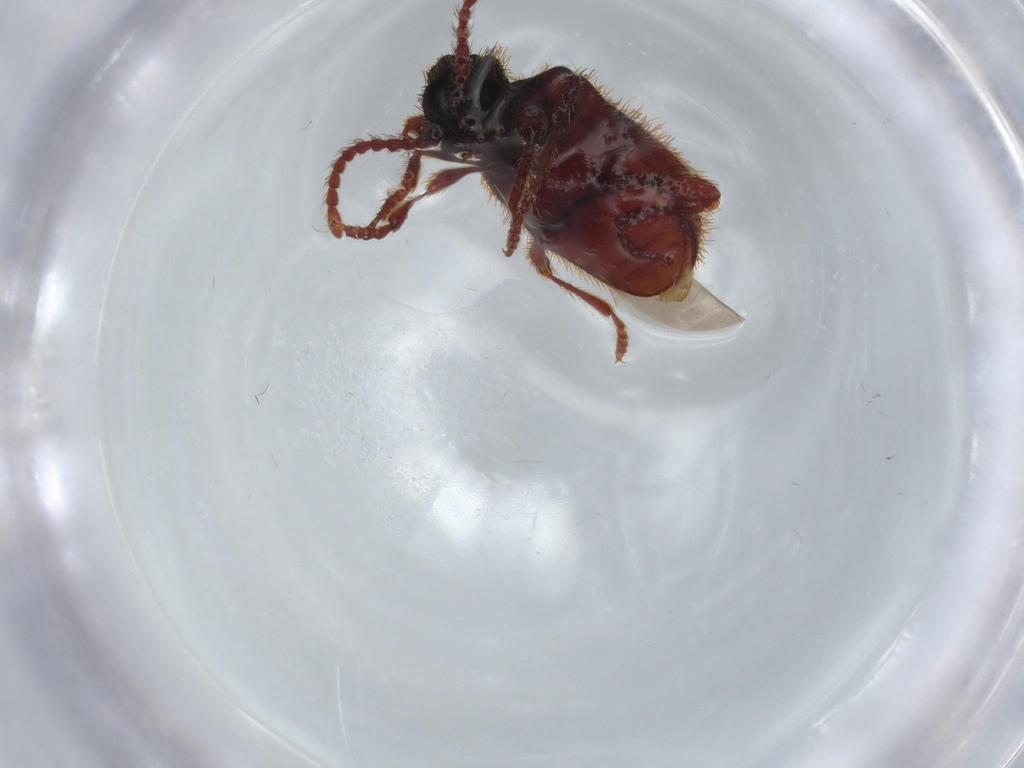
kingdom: Animalia
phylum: Arthropoda
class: Insecta
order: Coleoptera
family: Ptinidae
